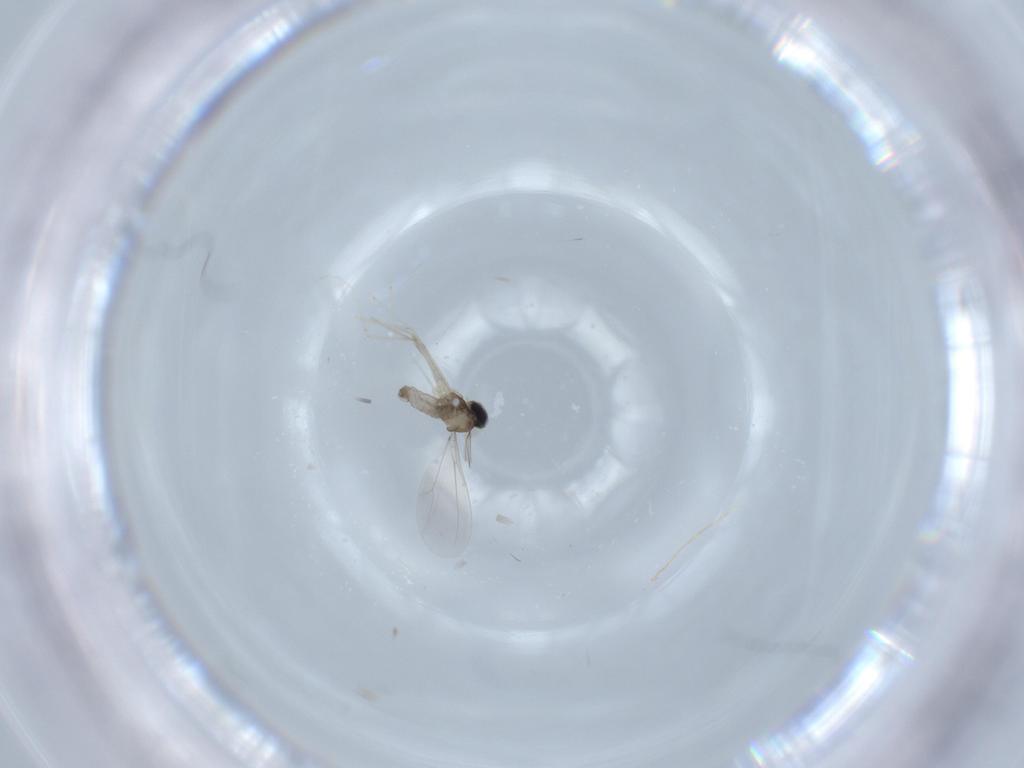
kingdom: Animalia
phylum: Arthropoda
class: Insecta
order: Diptera
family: Cecidomyiidae
